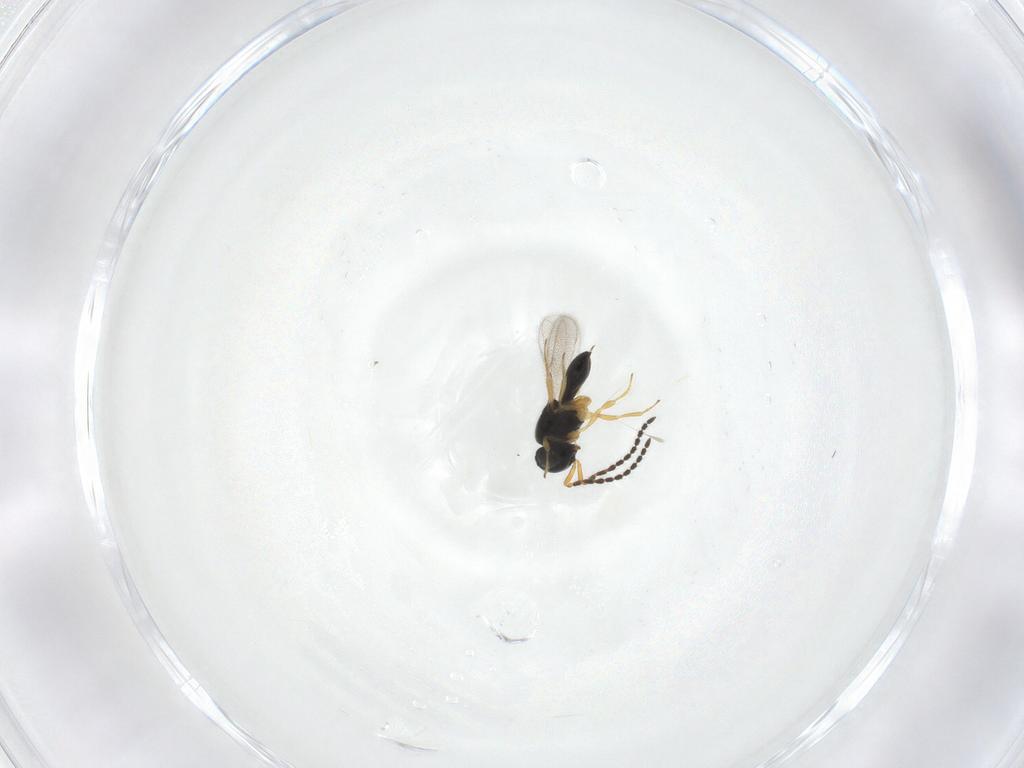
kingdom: Animalia
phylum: Arthropoda
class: Insecta
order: Hymenoptera
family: Scelionidae
